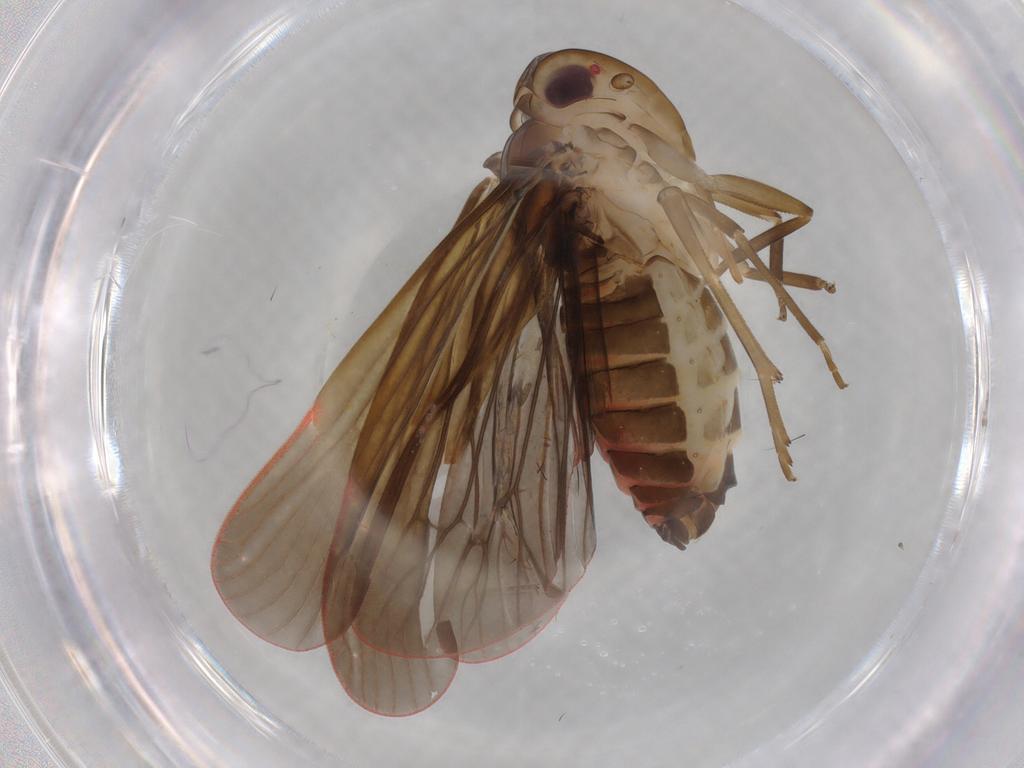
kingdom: Animalia
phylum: Arthropoda
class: Insecta
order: Hemiptera
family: Achilidae
